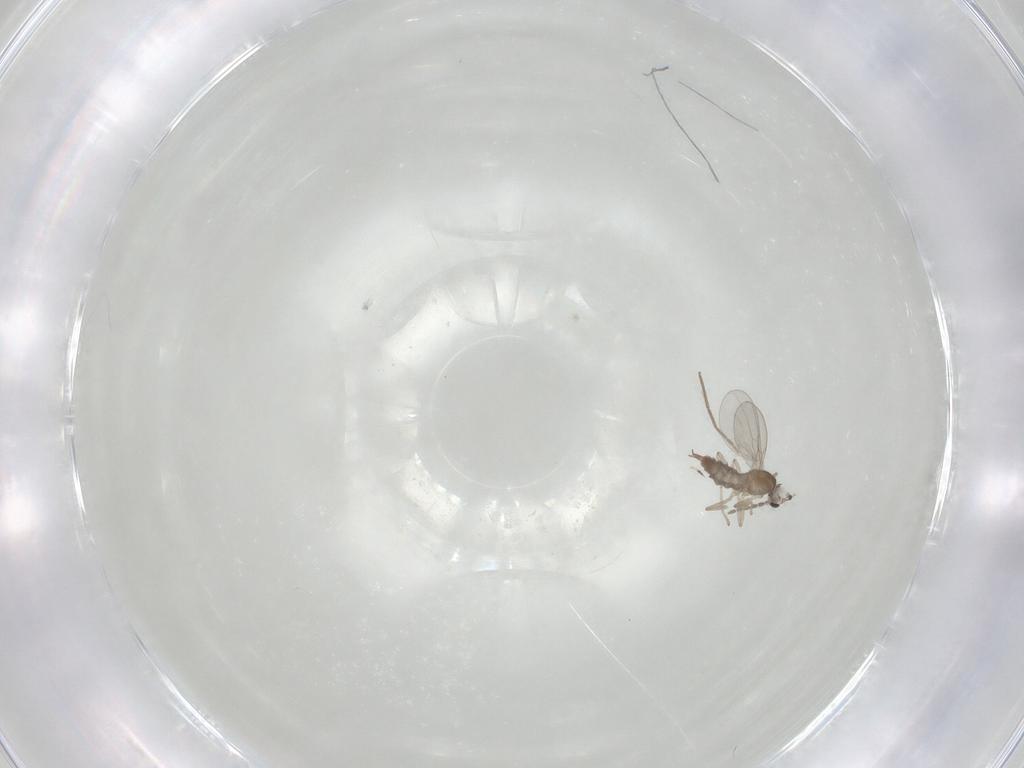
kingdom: Animalia
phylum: Arthropoda
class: Insecta
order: Diptera
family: Cecidomyiidae
